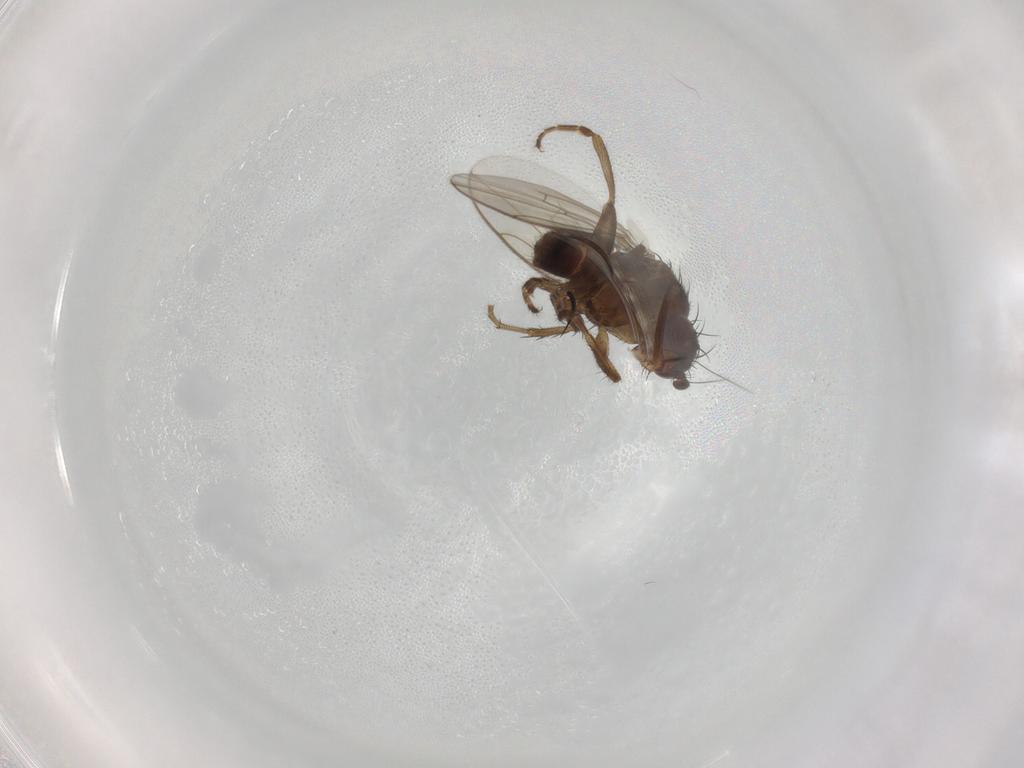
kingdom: Animalia
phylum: Arthropoda
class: Insecta
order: Diptera
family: Sphaeroceridae
